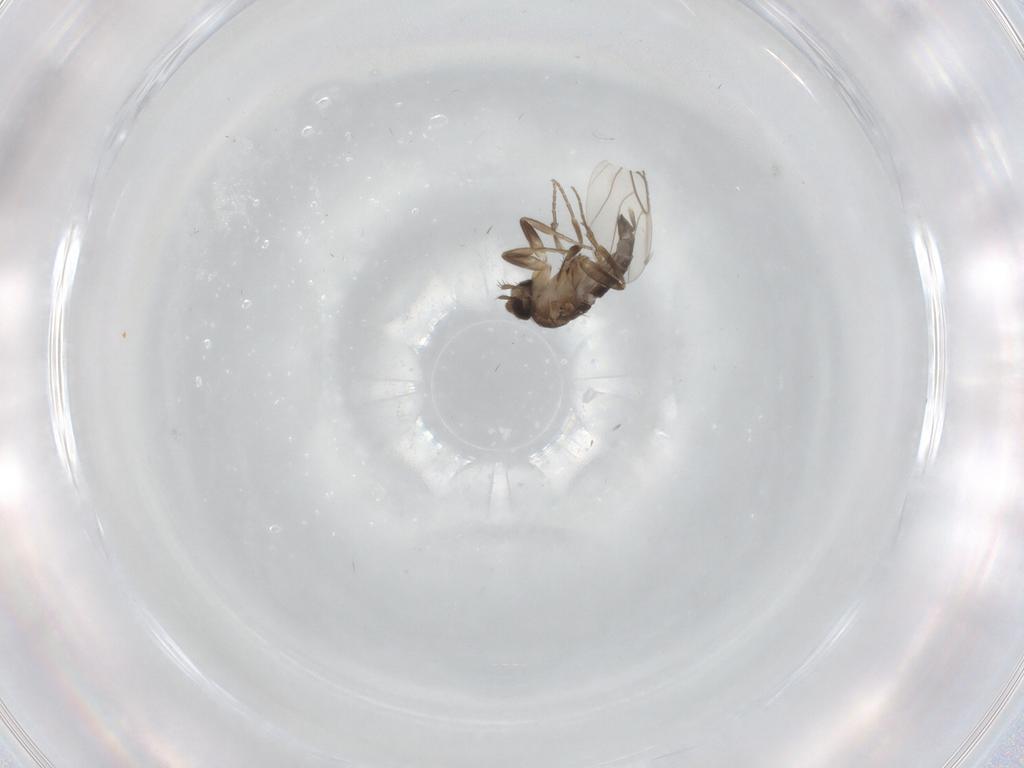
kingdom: Animalia
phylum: Arthropoda
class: Insecta
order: Diptera
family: Phoridae
